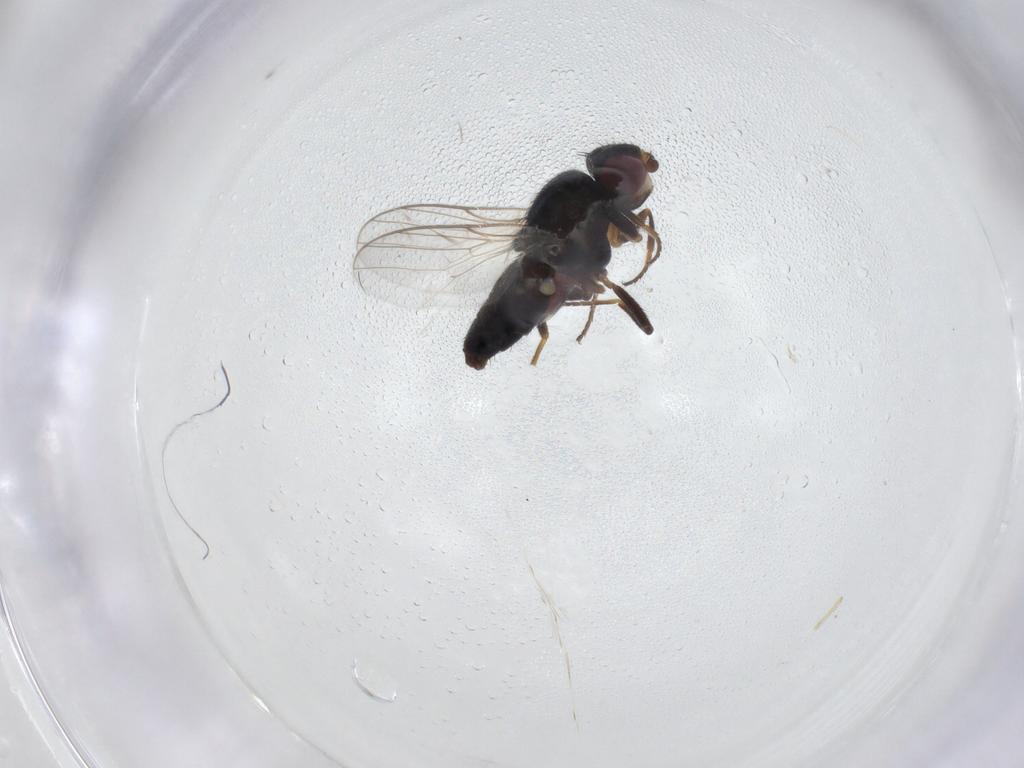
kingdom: Animalia
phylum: Arthropoda
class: Insecta
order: Diptera
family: Chloropidae
